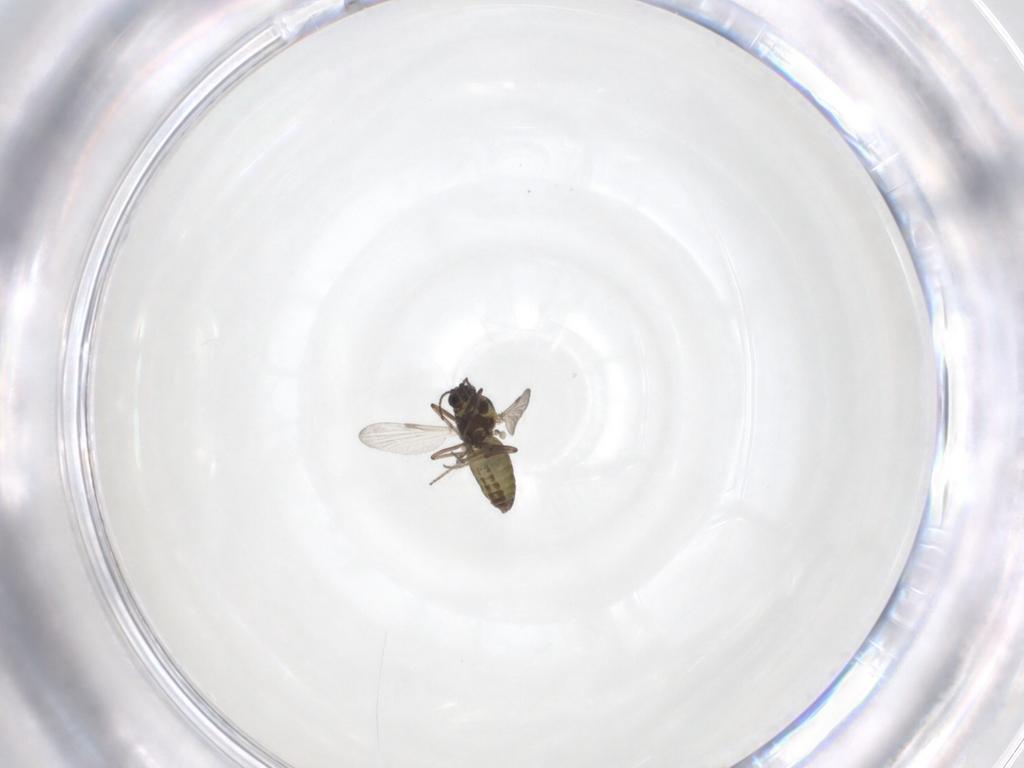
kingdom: Animalia
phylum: Arthropoda
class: Insecta
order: Diptera
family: Ceratopogonidae
